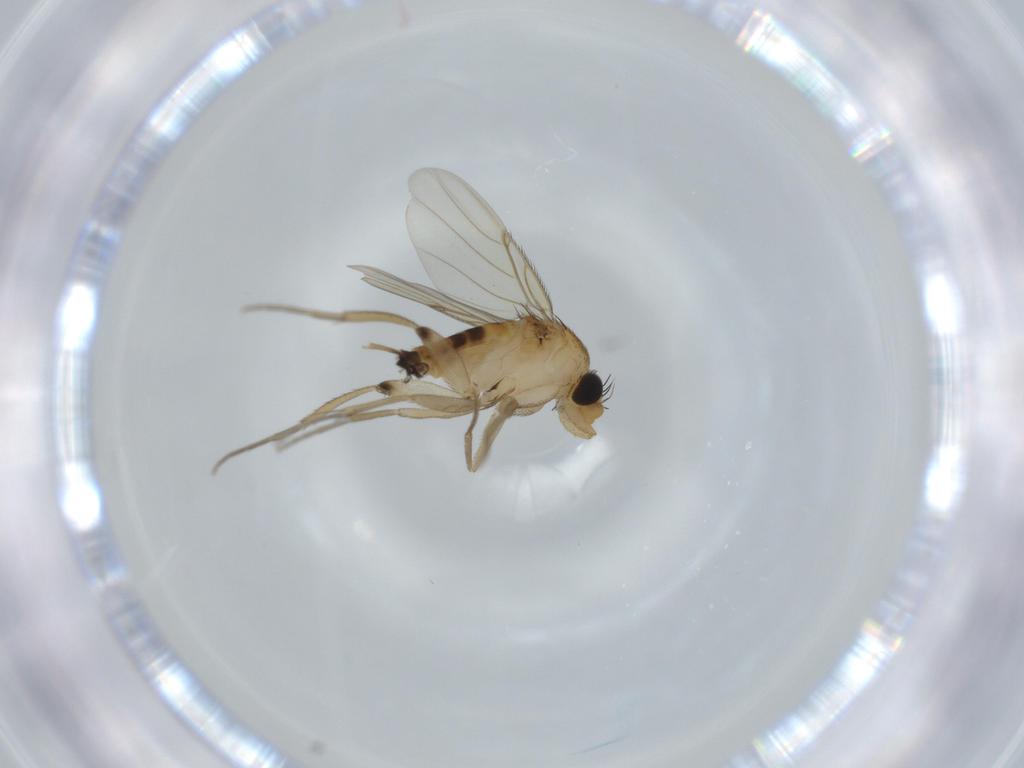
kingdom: Animalia
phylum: Arthropoda
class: Insecta
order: Diptera
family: Phoridae
